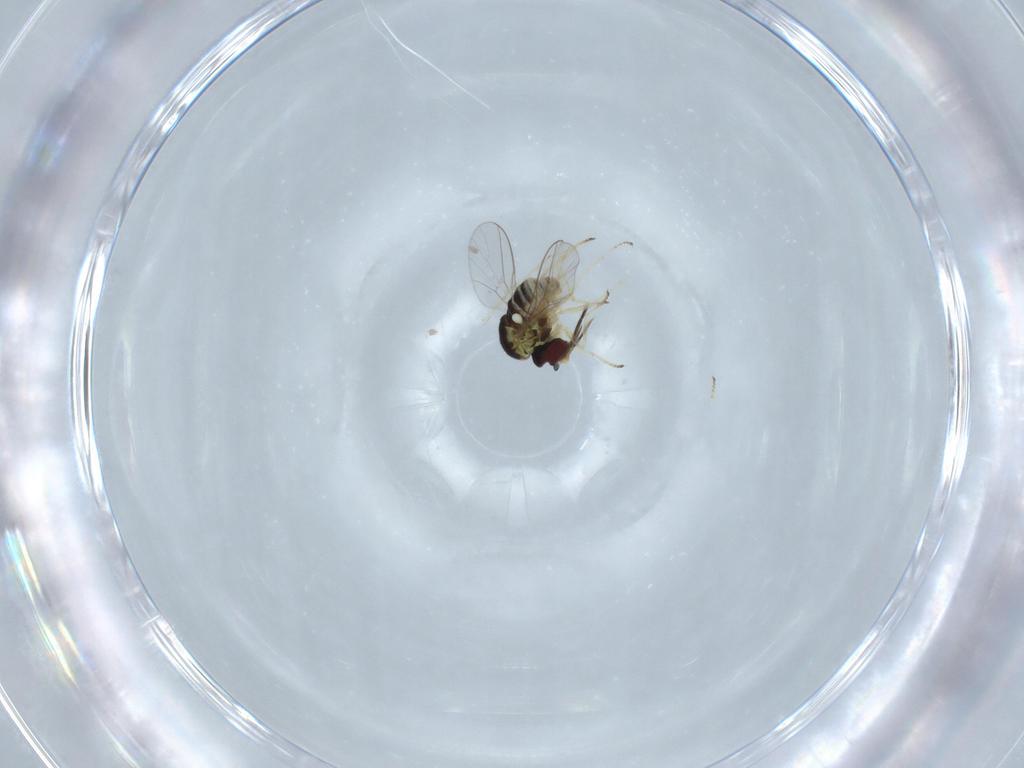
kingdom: Animalia
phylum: Arthropoda
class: Insecta
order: Diptera
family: Bombyliidae
